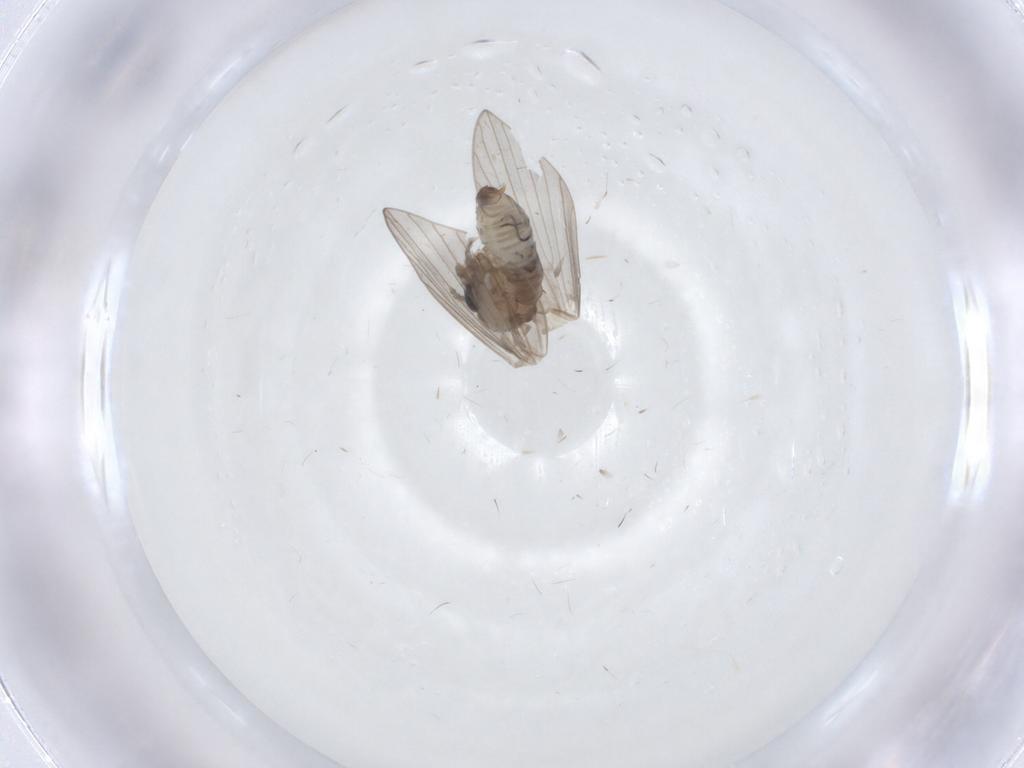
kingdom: Animalia
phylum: Arthropoda
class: Insecta
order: Diptera
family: Psychodidae
